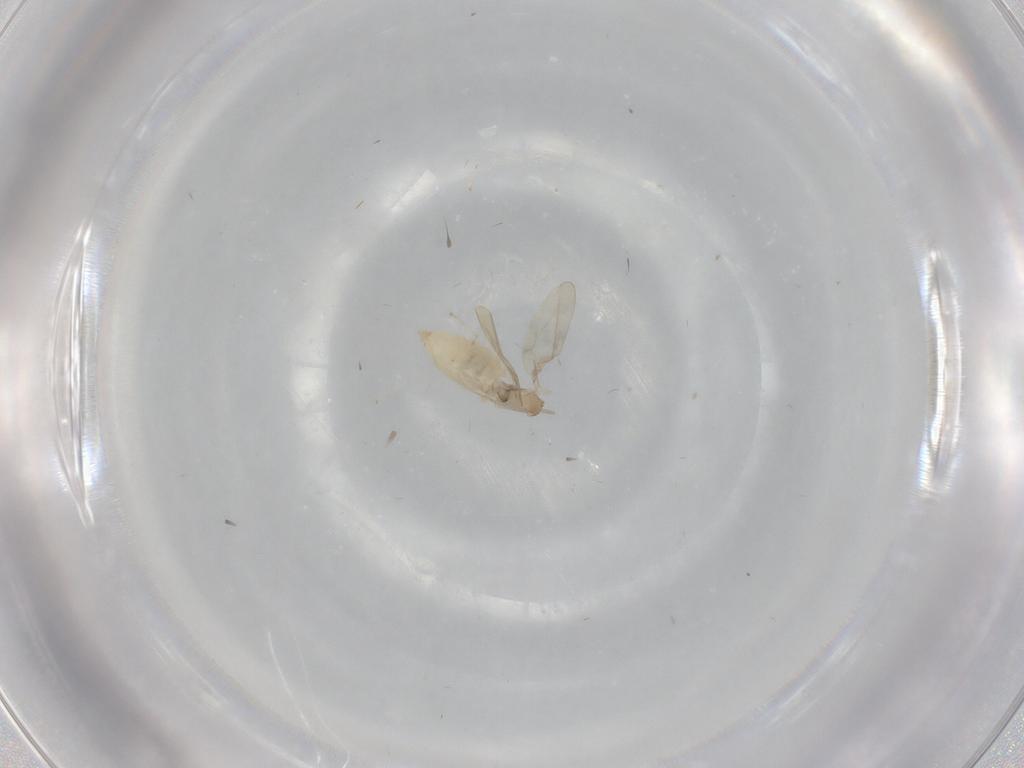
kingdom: Animalia
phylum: Arthropoda
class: Insecta
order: Diptera
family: Cecidomyiidae
